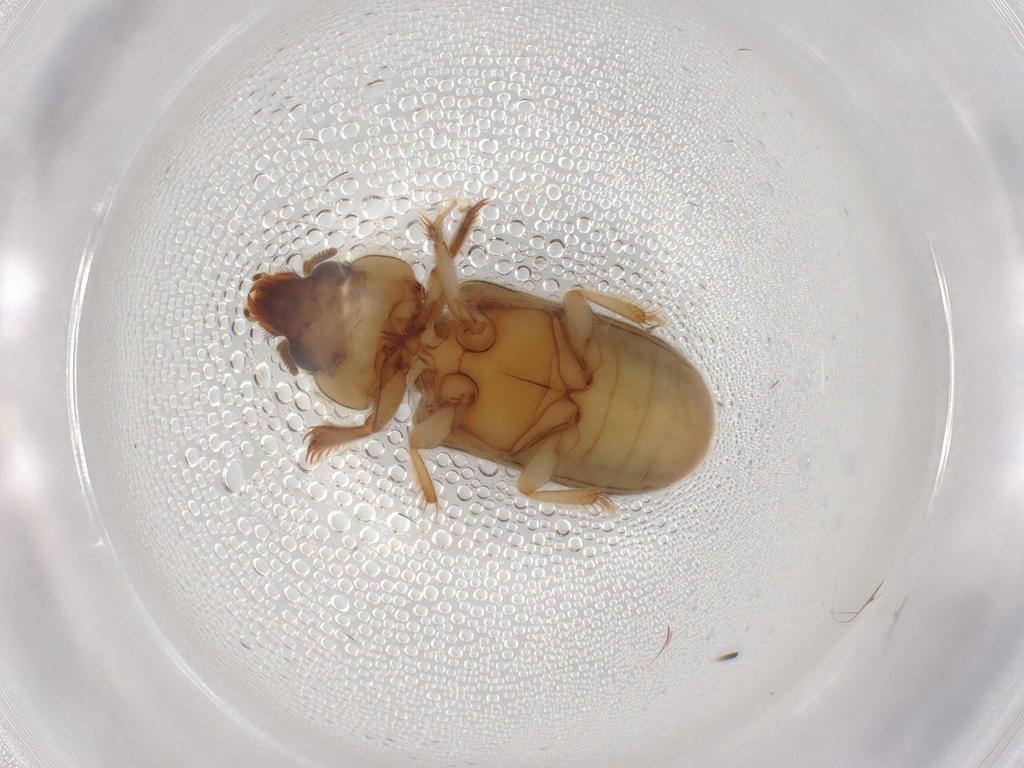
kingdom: Animalia
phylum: Arthropoda
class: Insecta
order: Coleoptera
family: Heteroceridae
